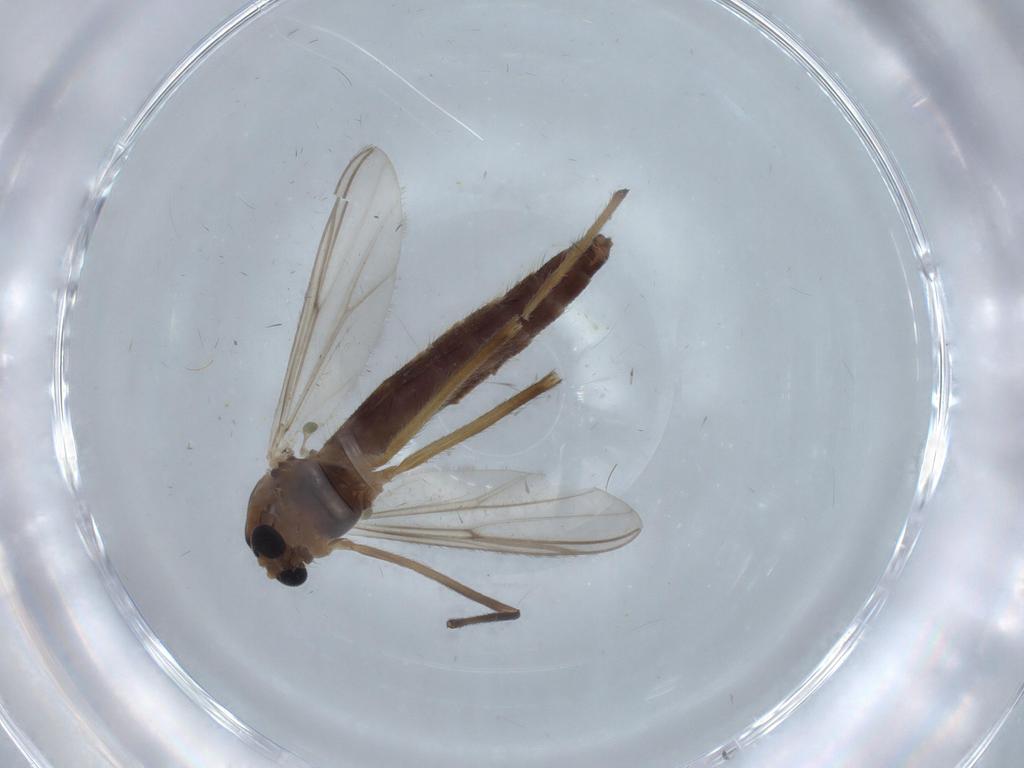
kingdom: Animalia
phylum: Arthropoda
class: Insecta
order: Diptera
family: Chironomidae
